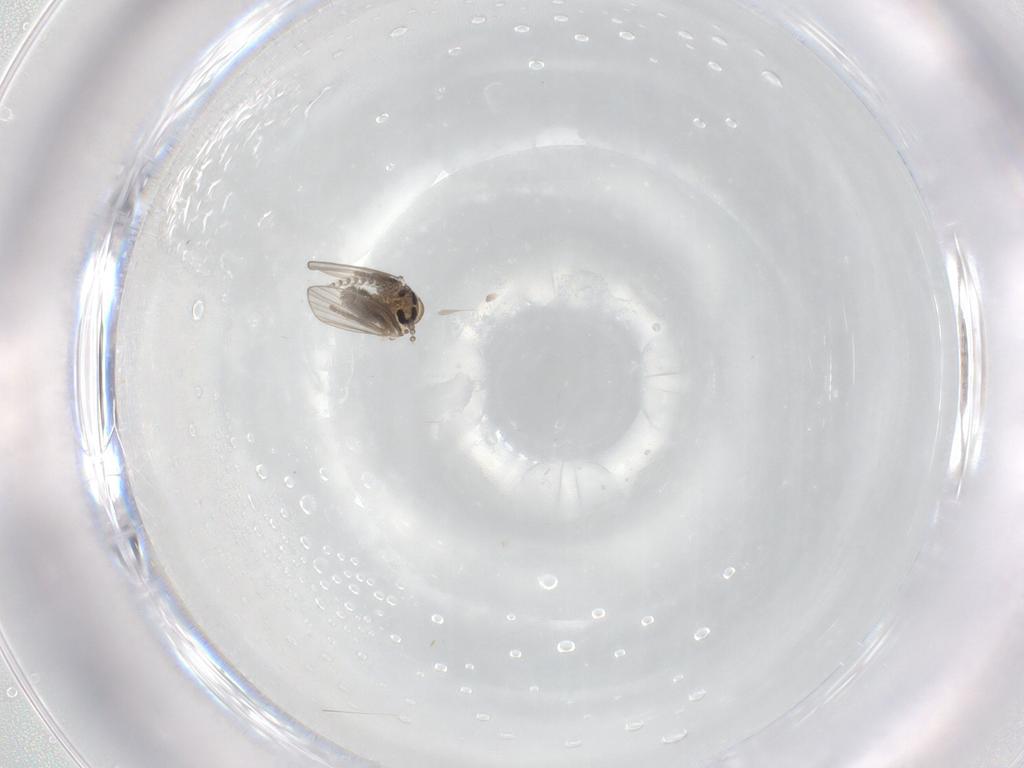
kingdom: Animalia
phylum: Arthropoda
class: Insecta
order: Diptera
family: Psychodidae
